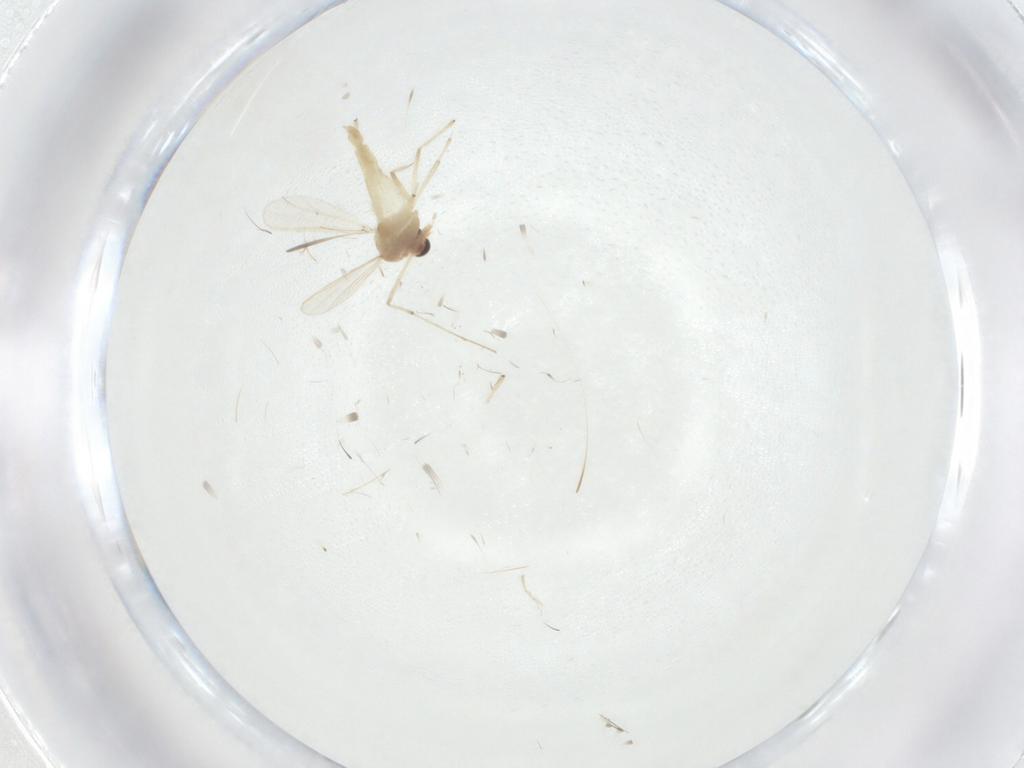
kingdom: Animalia
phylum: Arthropoda
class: Insecta
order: Diptera
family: Chironomidae
